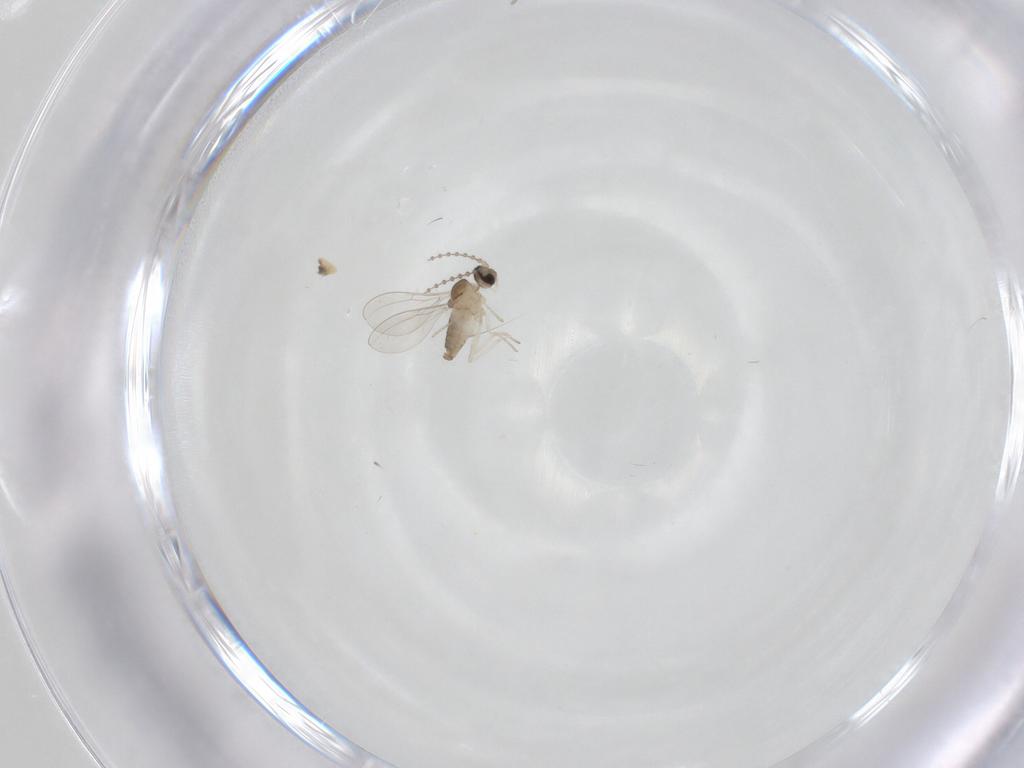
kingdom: Animalia
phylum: Arthropoda
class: Insecta
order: Diptera
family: Cecidomyiidae
